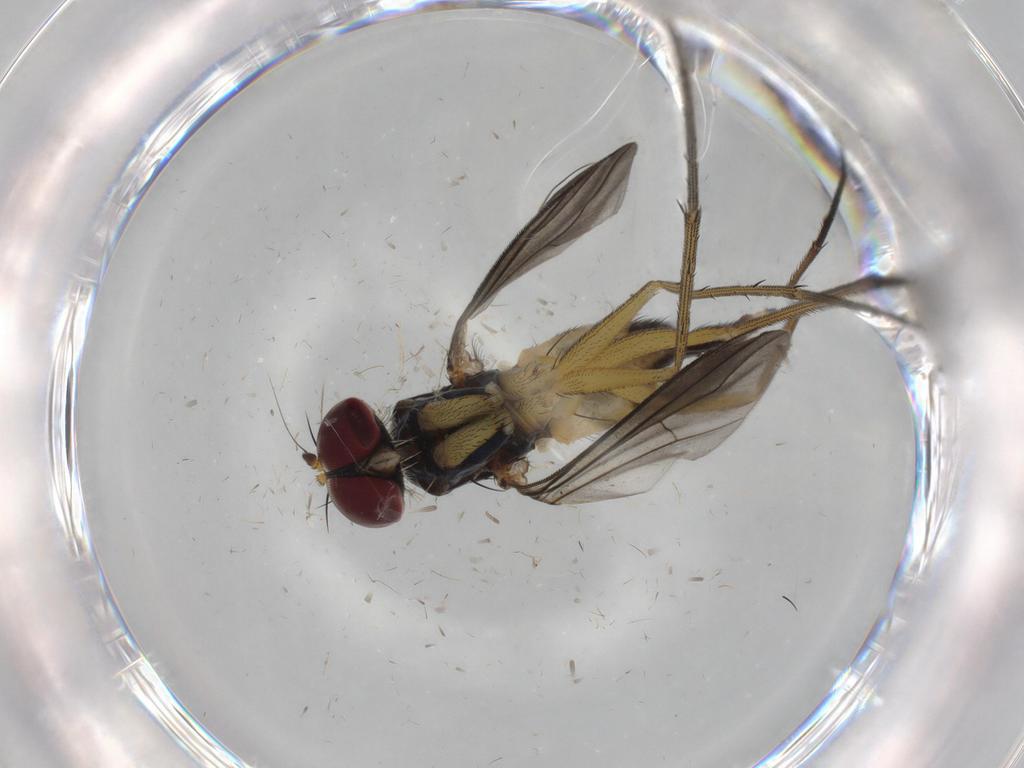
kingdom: Animalia
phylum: Arthropoda
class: Insecta
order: Diptera
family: Dolichopodidae
